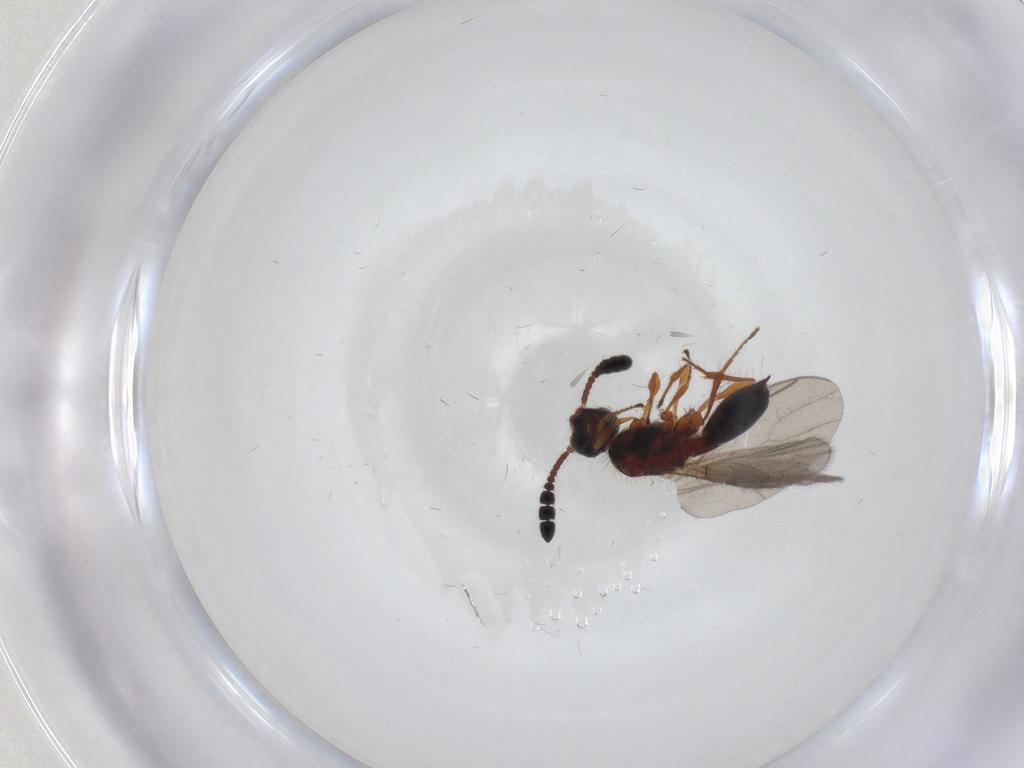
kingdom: Animalia
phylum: Arthropoda
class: Insecta
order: Hymenoptera
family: Diapriidae
